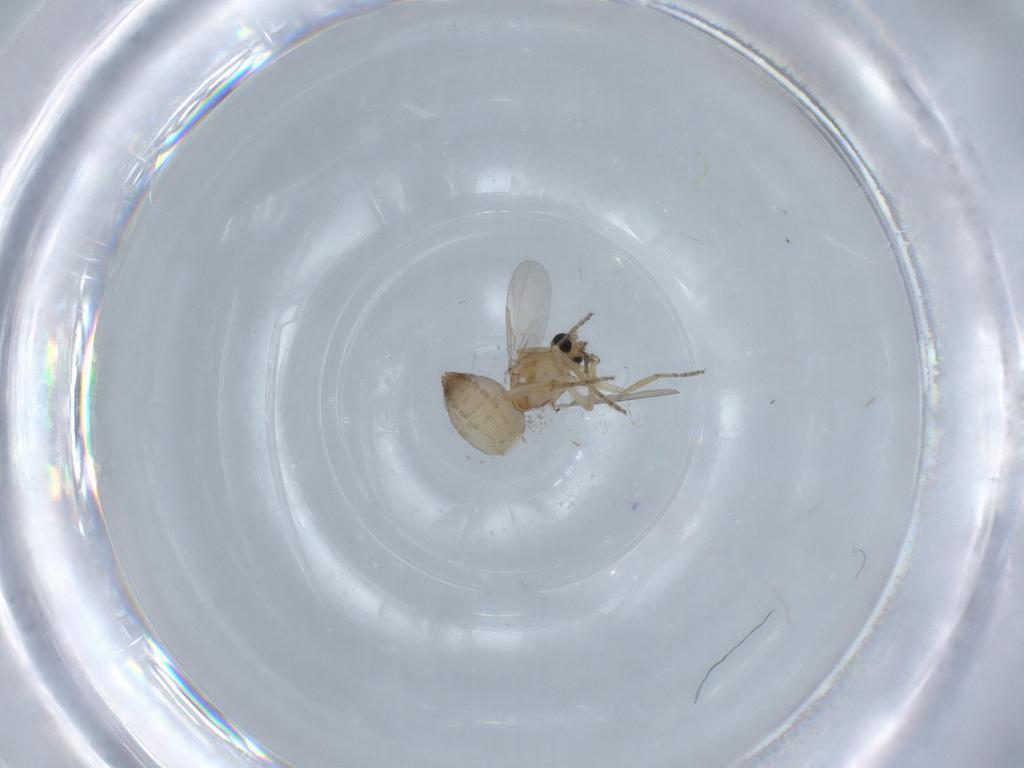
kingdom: Animalia
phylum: Arthropoda
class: Insecta
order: Diptera
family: Ceratopogonidae
